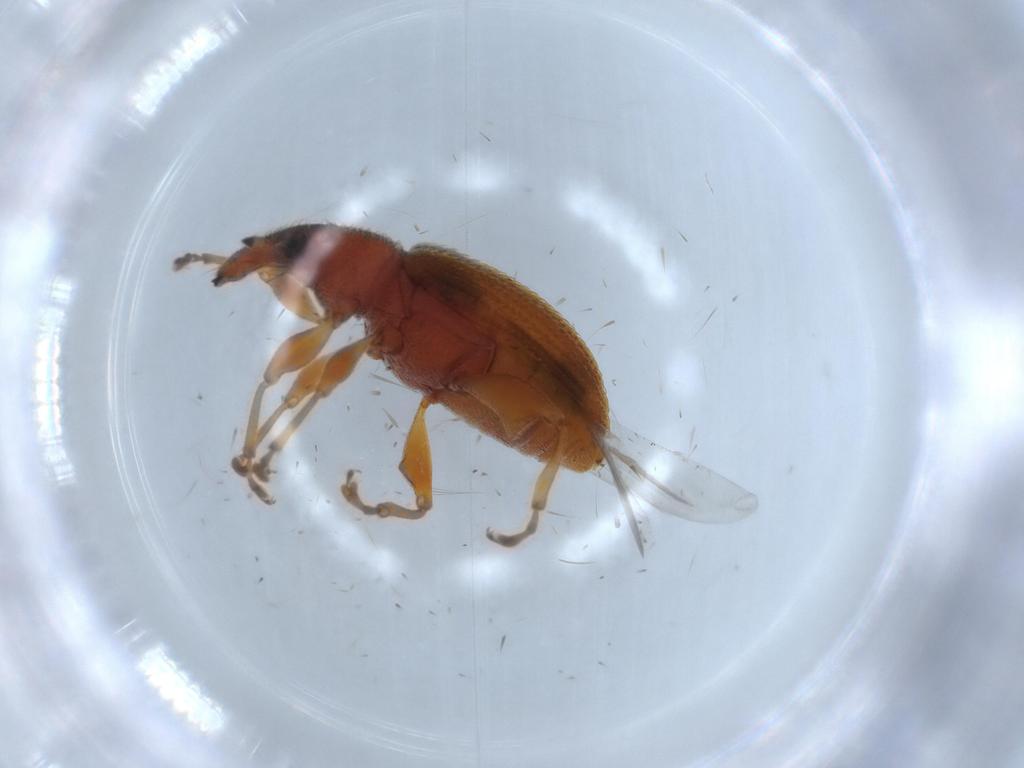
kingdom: Animalia
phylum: Arthropoda
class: Insecta
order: Coleoptera
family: Curculionidae
